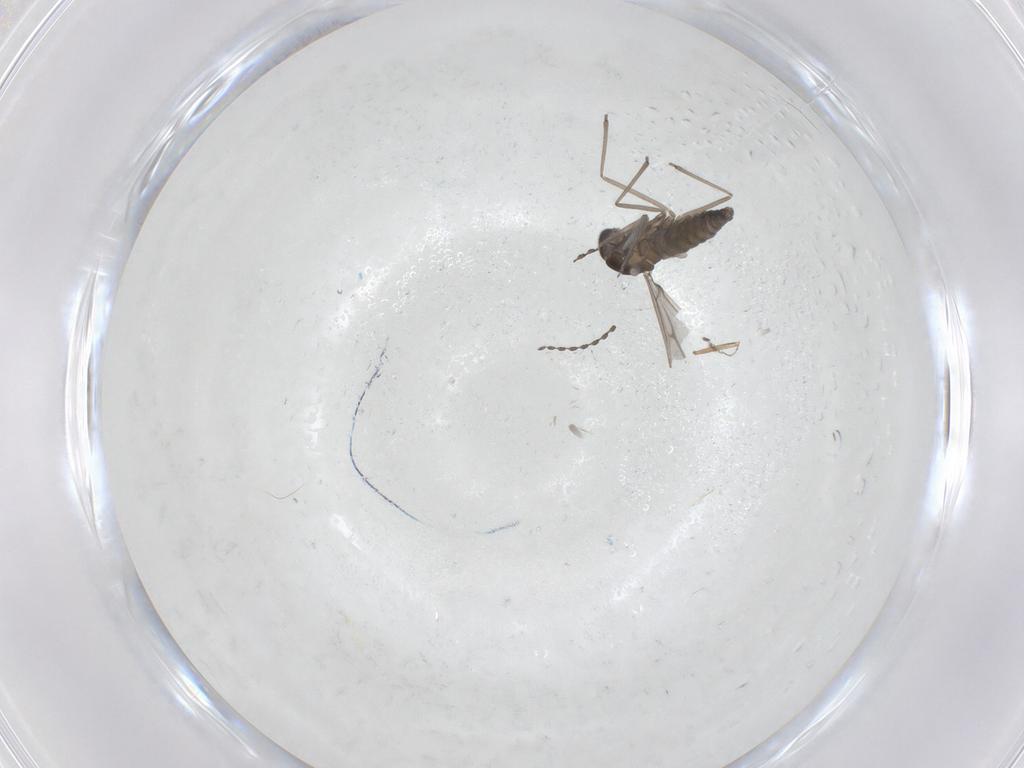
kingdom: Animalia
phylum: Arthropoda
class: Insecta
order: Diptera
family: Cecidomyiidae
